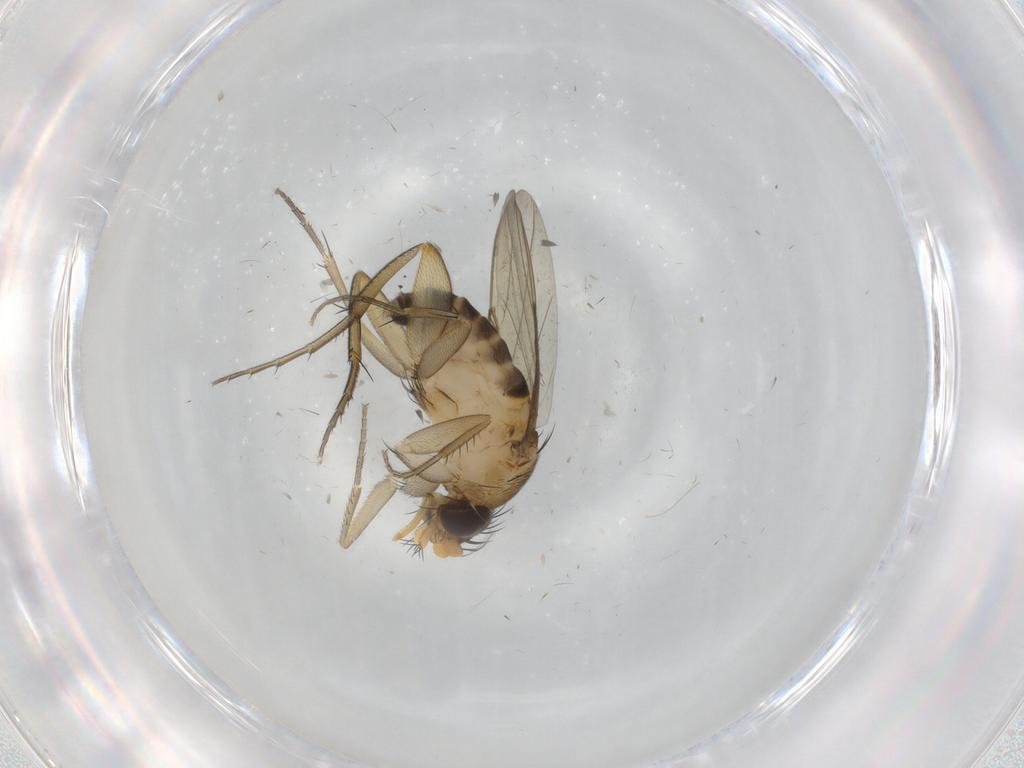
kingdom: Animalia
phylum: Arthropoda
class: Insecta
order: Diptera
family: Phoridae
